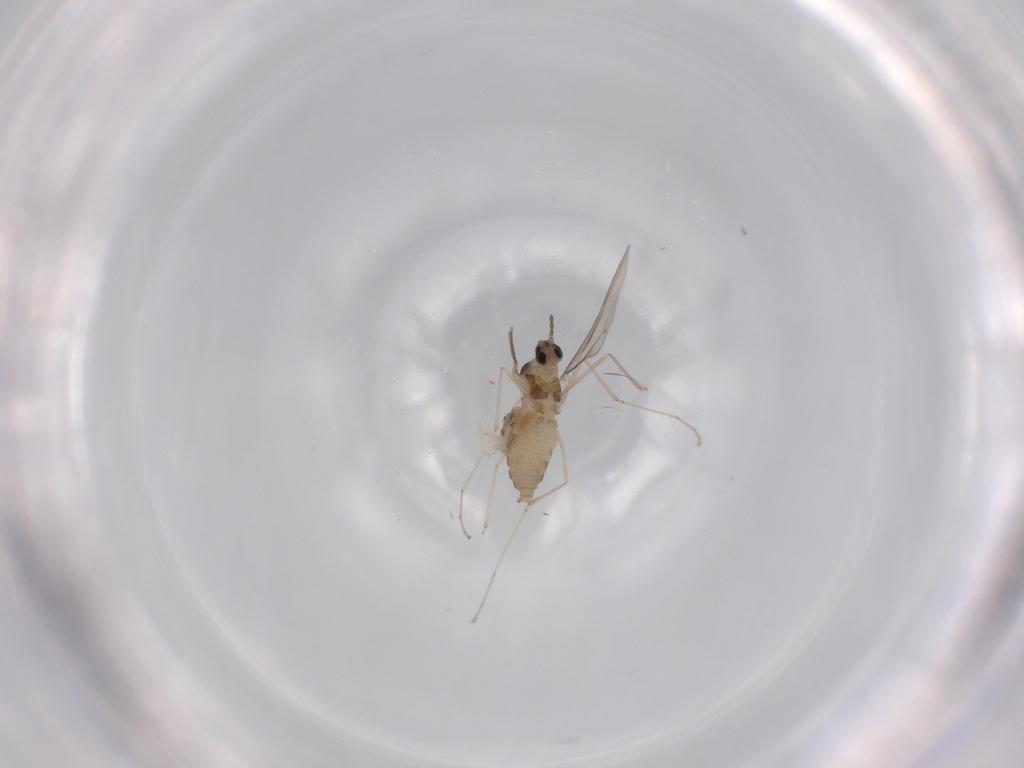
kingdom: Animalia
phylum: Arthropoda
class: Insecta
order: Diptera
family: Cecidomyiidae
